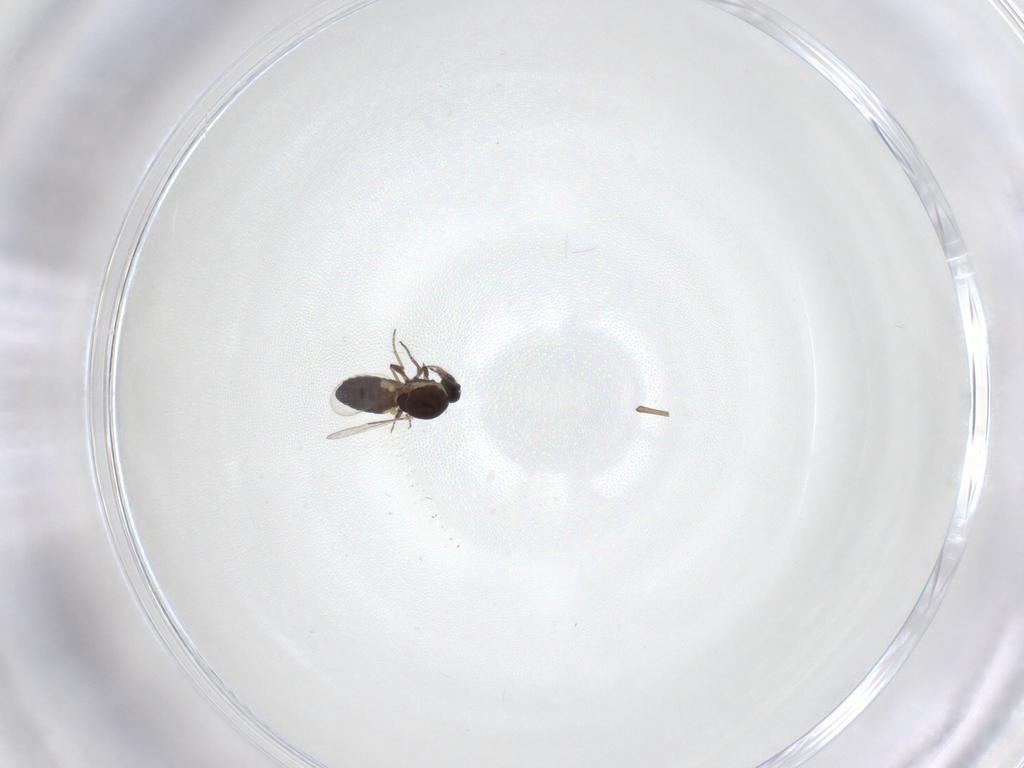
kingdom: Animalia
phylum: Arthropoda
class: Insecta
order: Diptera
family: Ceratopogonidae
